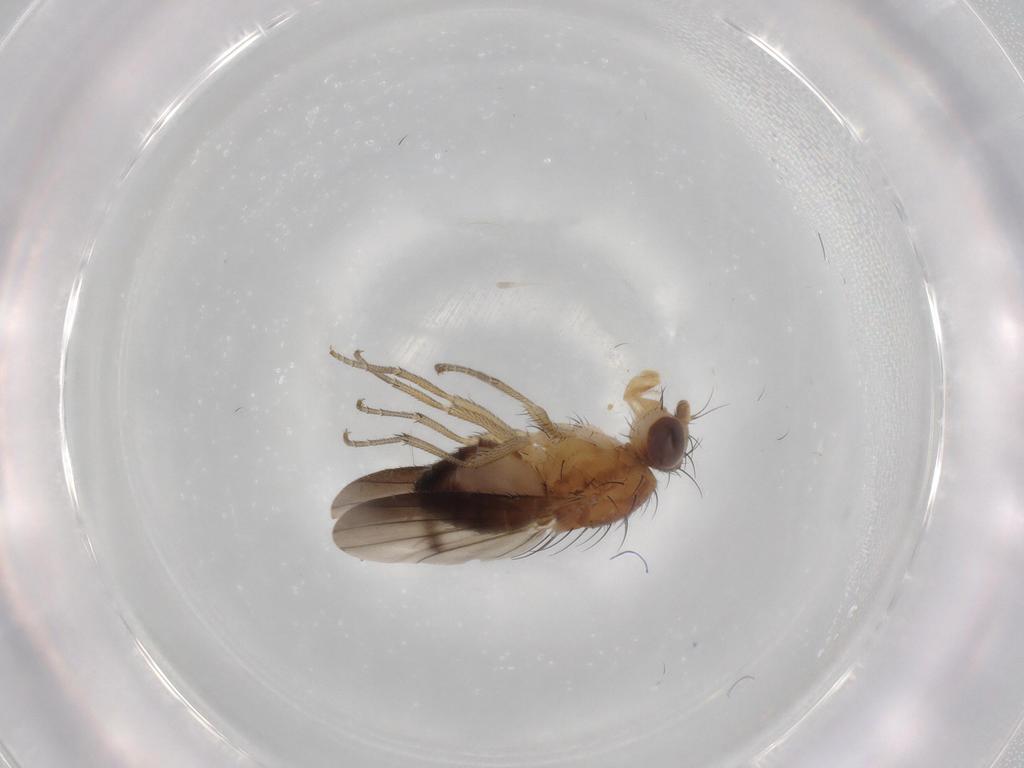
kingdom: Animalia
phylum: Arthropoda
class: Insecta
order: Diptera
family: Heleomyzidae
